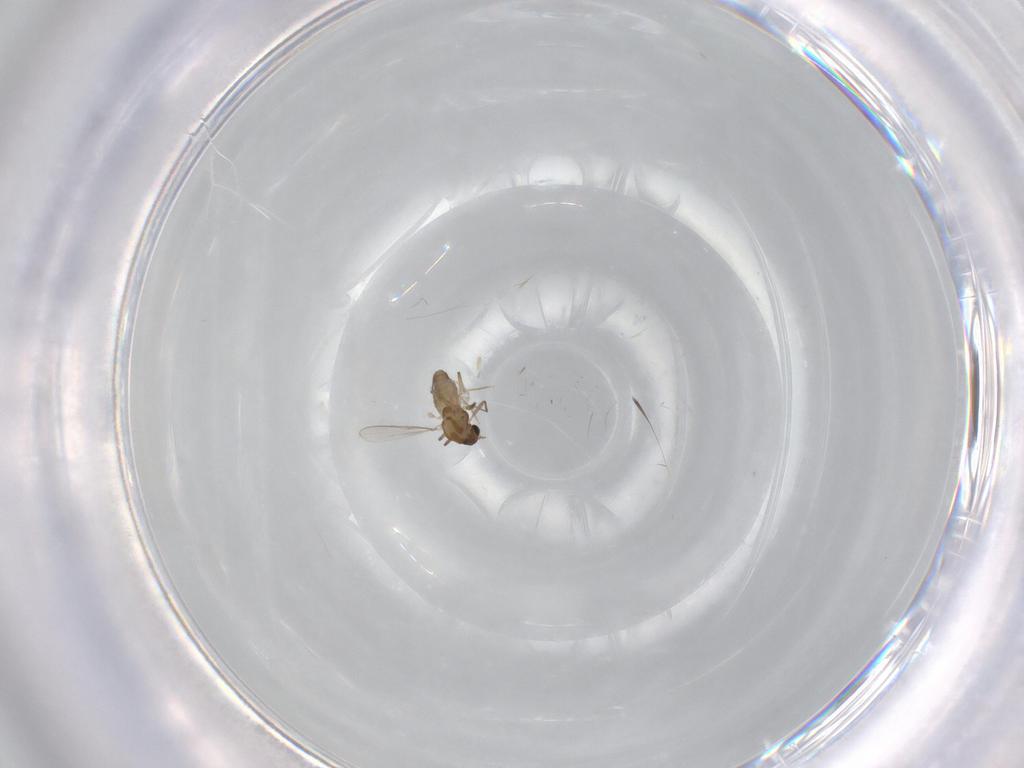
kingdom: Animalia
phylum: Arthropoda
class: Insecta
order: Diptera
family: Chironomidae
